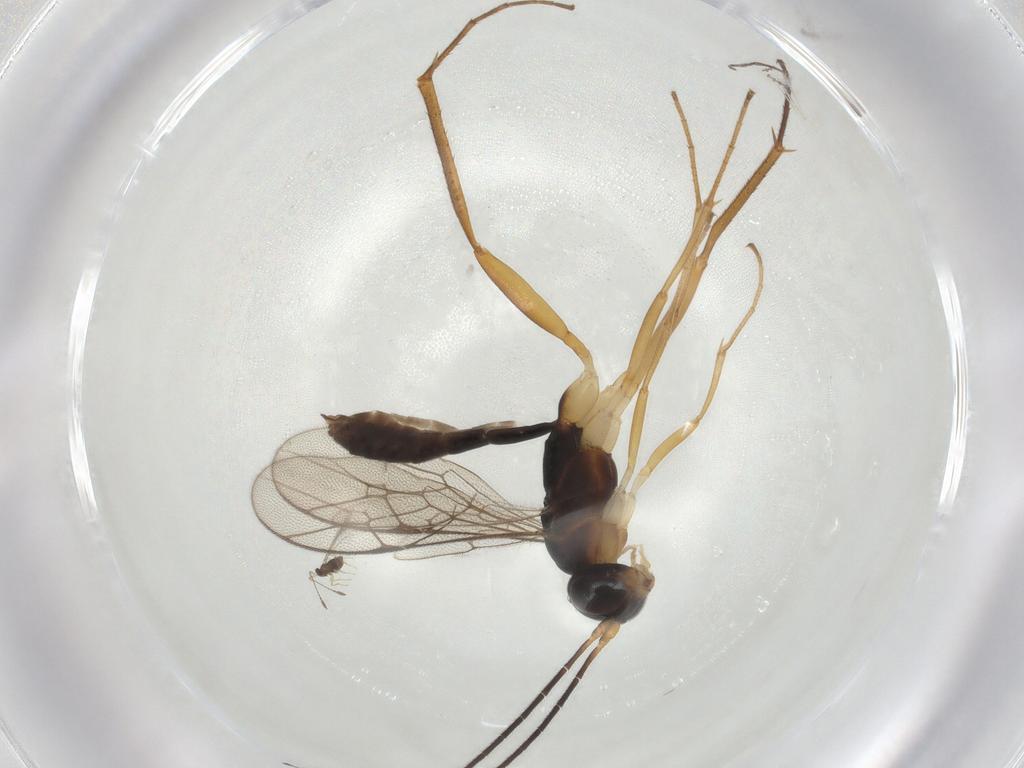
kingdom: Animalia
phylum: Arthropoda
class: Insecta
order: Hymenoptera
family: Ichneumonidae
